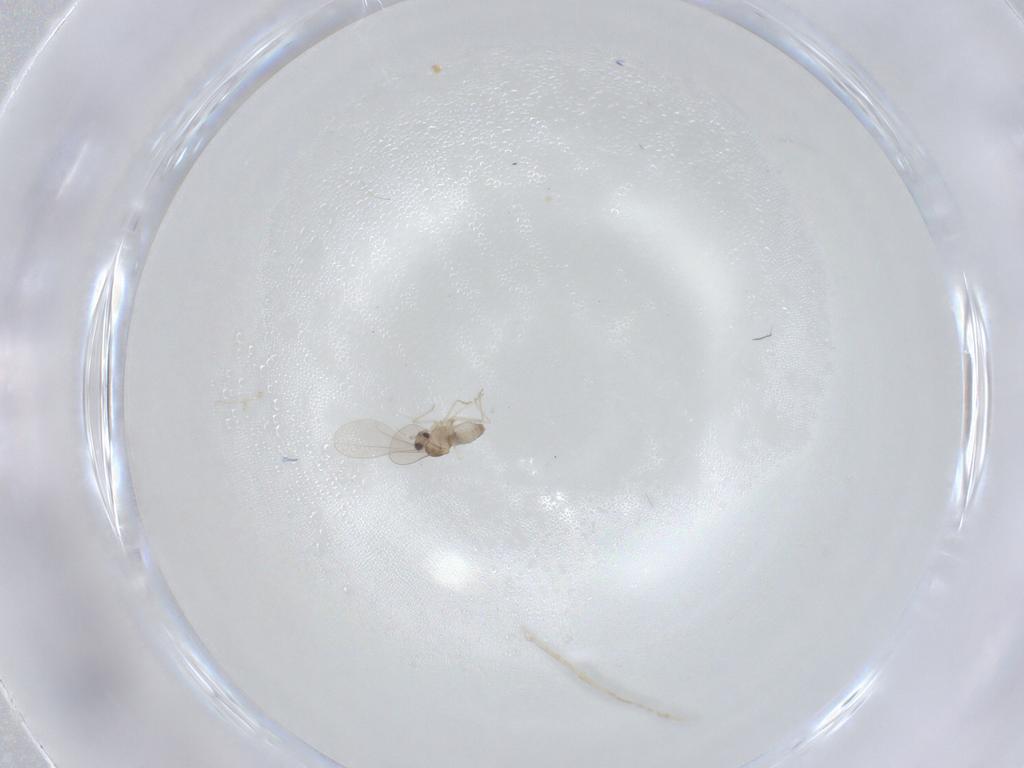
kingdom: Animalia
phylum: Arthropoda
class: Insecta
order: Diptera
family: Cecidomyiidae
